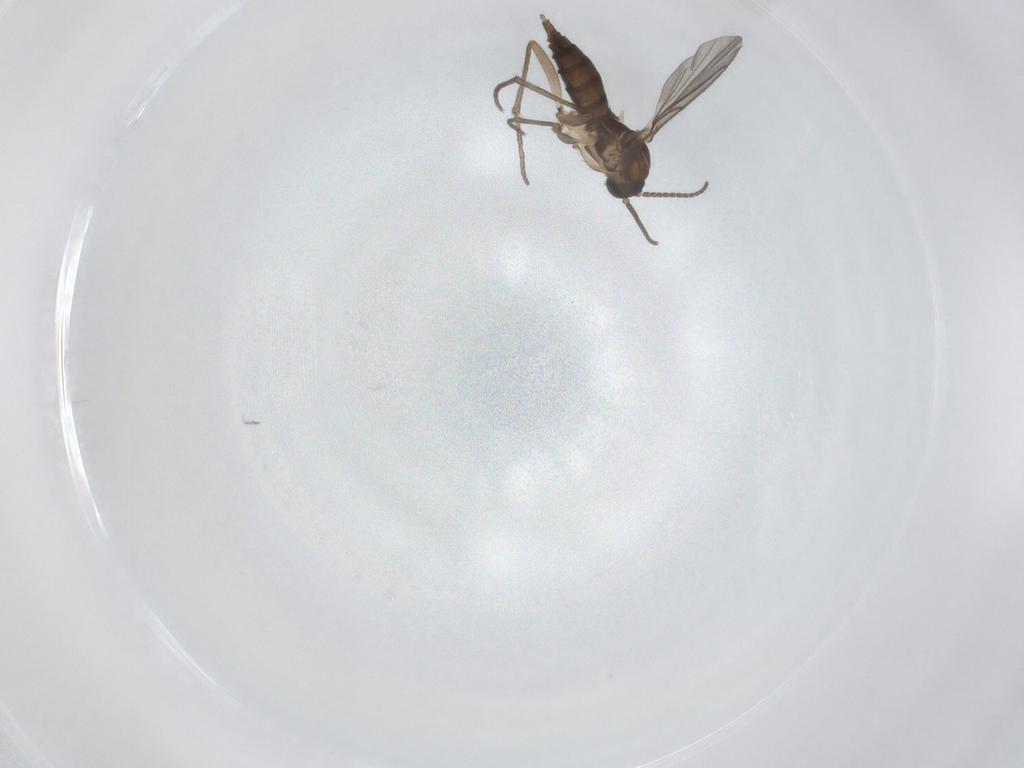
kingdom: Animalia
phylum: Arthropoda
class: Insecta
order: Diptera
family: Sciaridae
